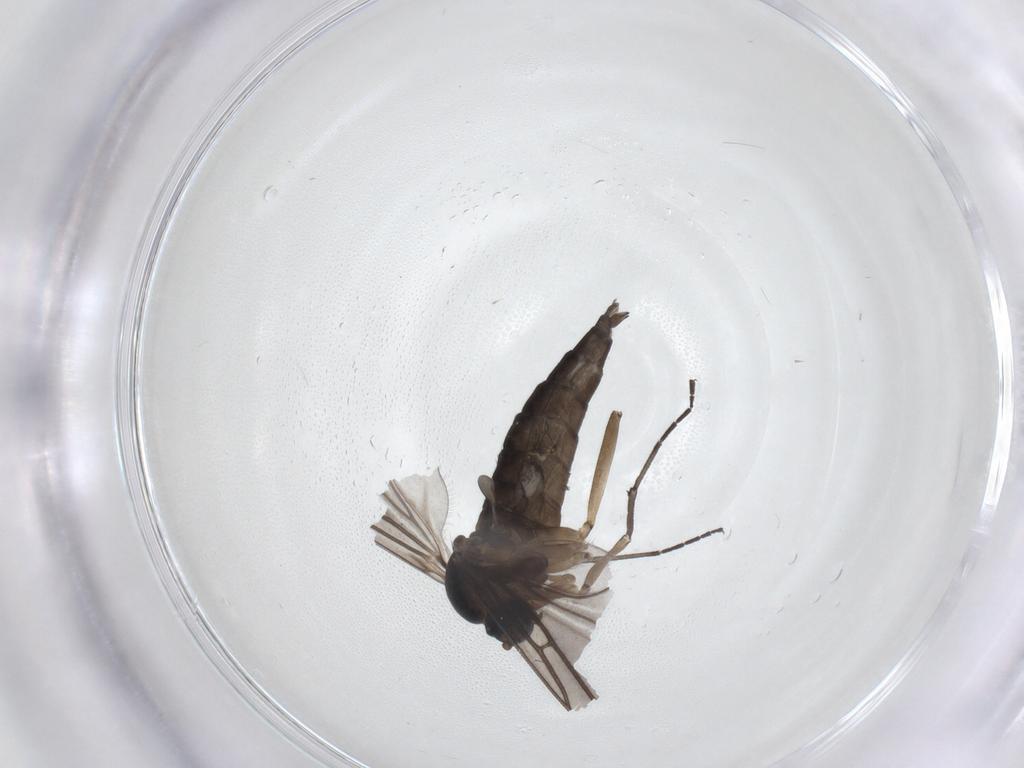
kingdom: Animalia
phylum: Arthropoda
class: Insecta
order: Diptera
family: Sciaridae
